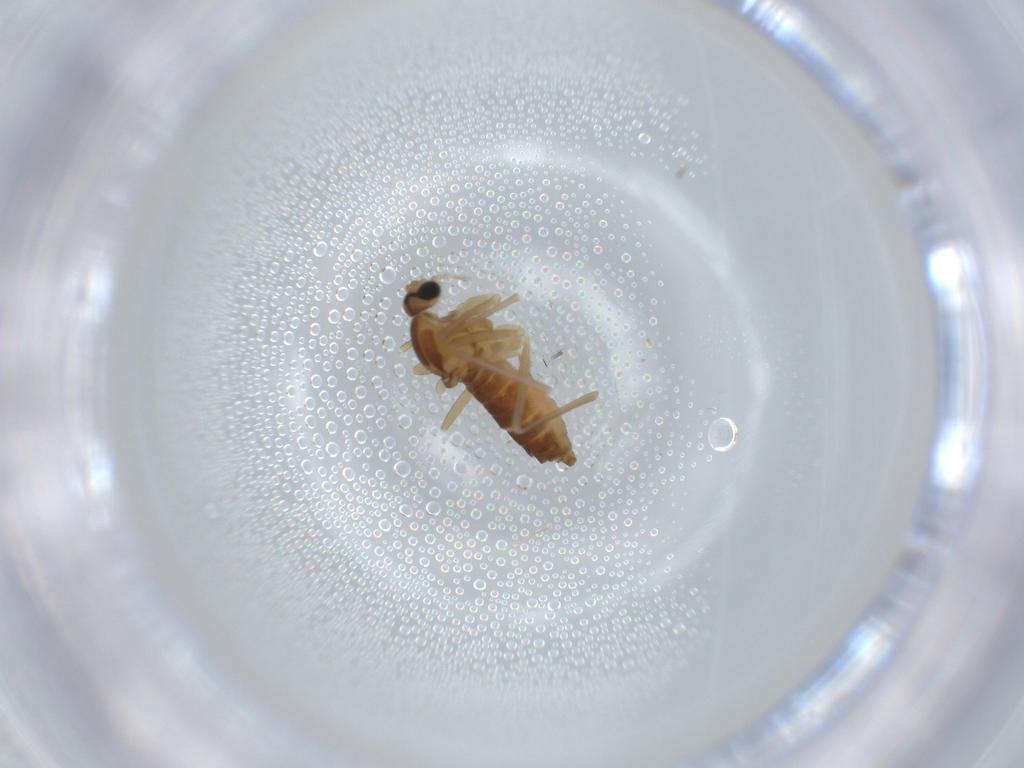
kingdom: Animalia
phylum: Arthropoda
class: Insecta
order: Diptera
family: Cecidomyiidae
